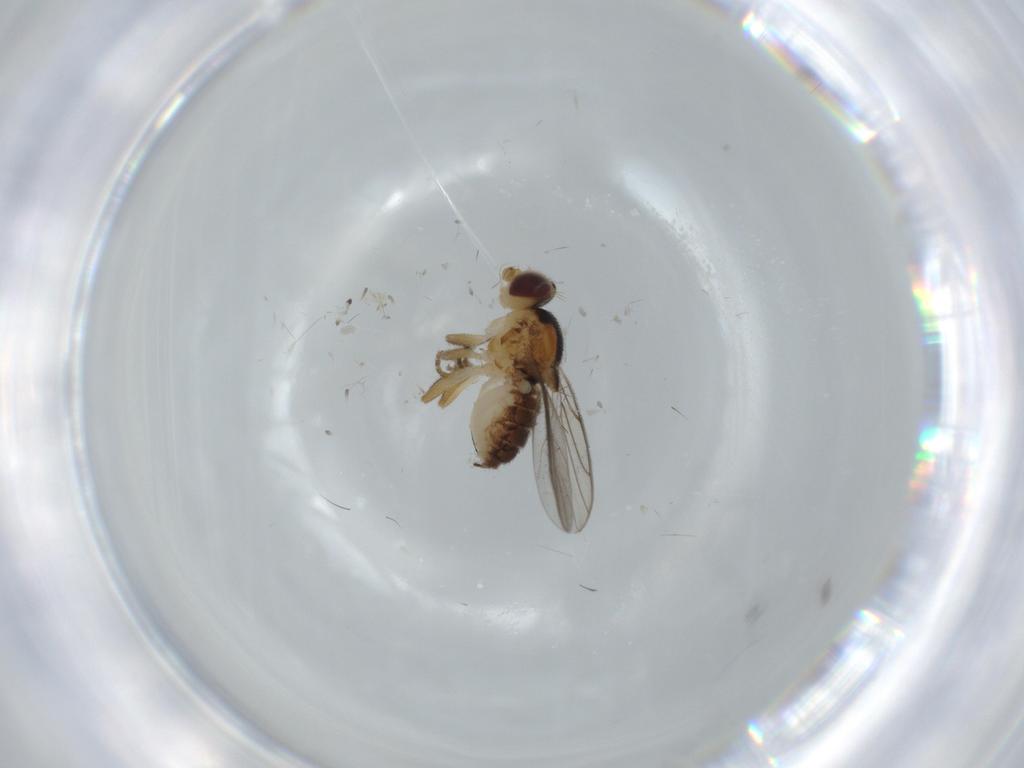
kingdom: Animalia
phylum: Arthropoda
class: Insecta
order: Diptera
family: Chloropidae
